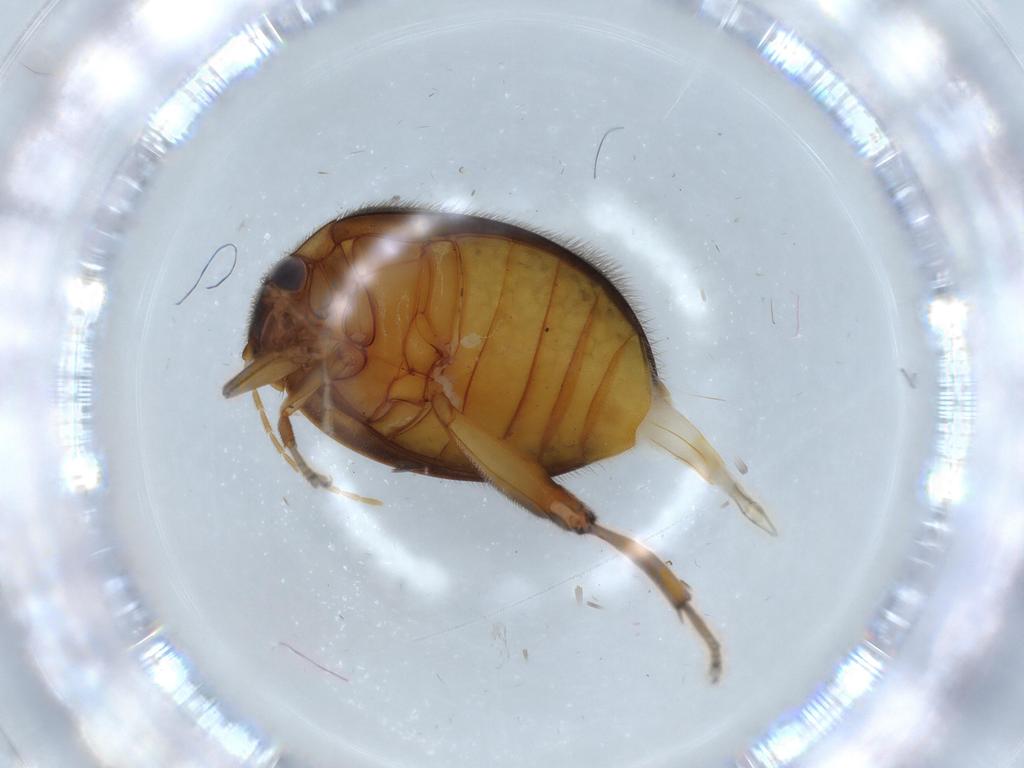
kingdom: Animalia
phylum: Arthropoda
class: Insecta
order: Coleoptera
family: Scirtidae
